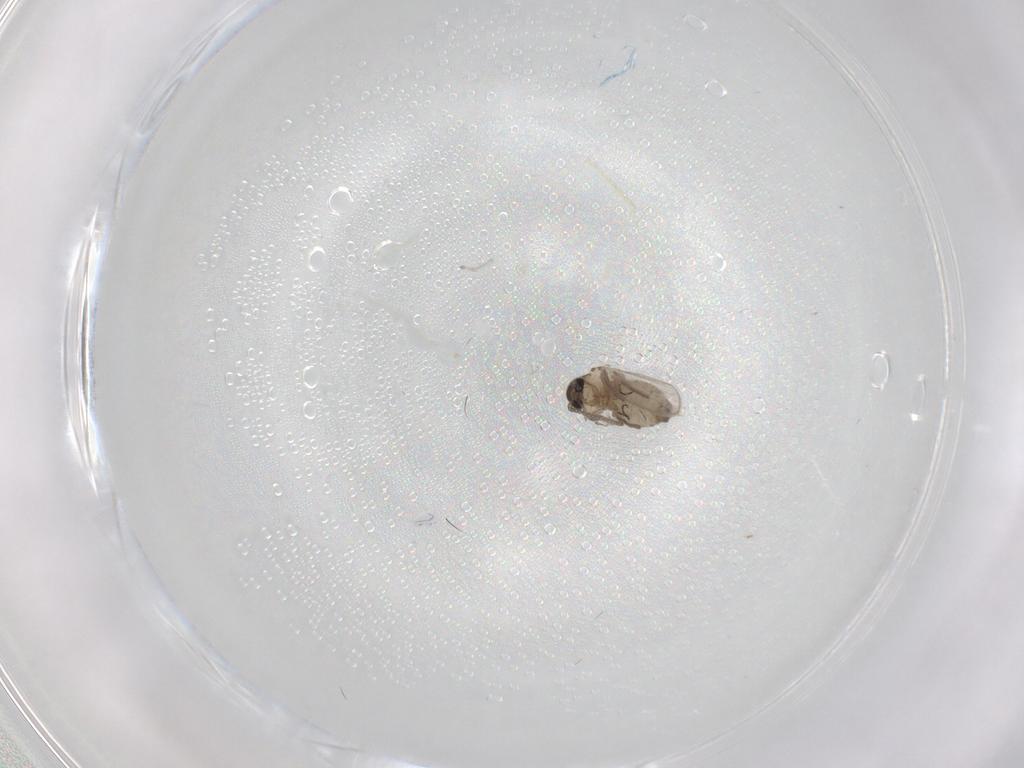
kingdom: Animalia
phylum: Arthropoda
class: Insecta
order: Diptera
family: Psychodidae
